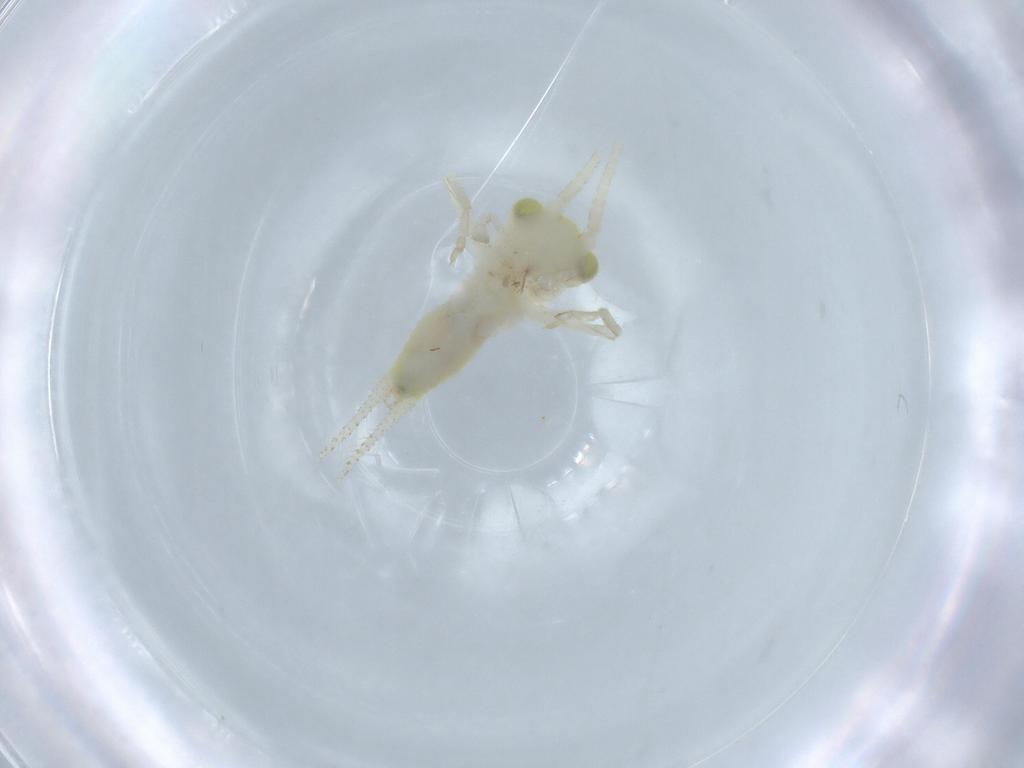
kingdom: Animalia
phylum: Arthropoda
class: Insecta
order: Orthoptera
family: Trigonidiidae
